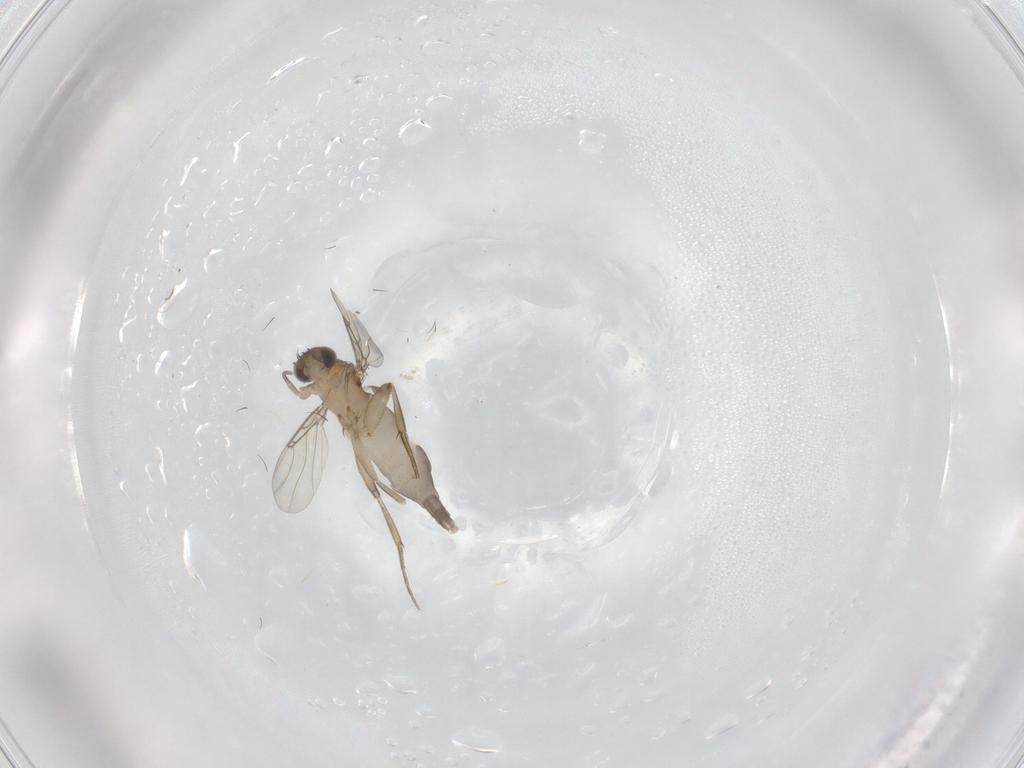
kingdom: Animalia
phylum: Arthropoda
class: Insecta
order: Diptera
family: Phoridae
